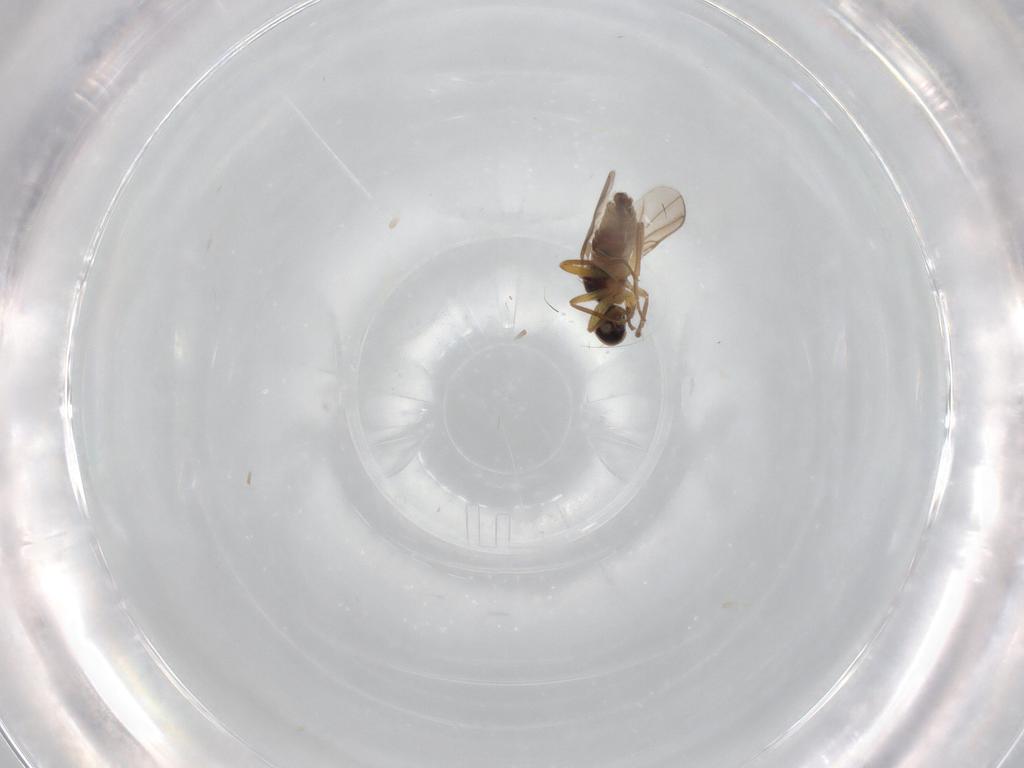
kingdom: Animalia
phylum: Arthropoda
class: Insecta
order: Diptera
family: Hybotidae
